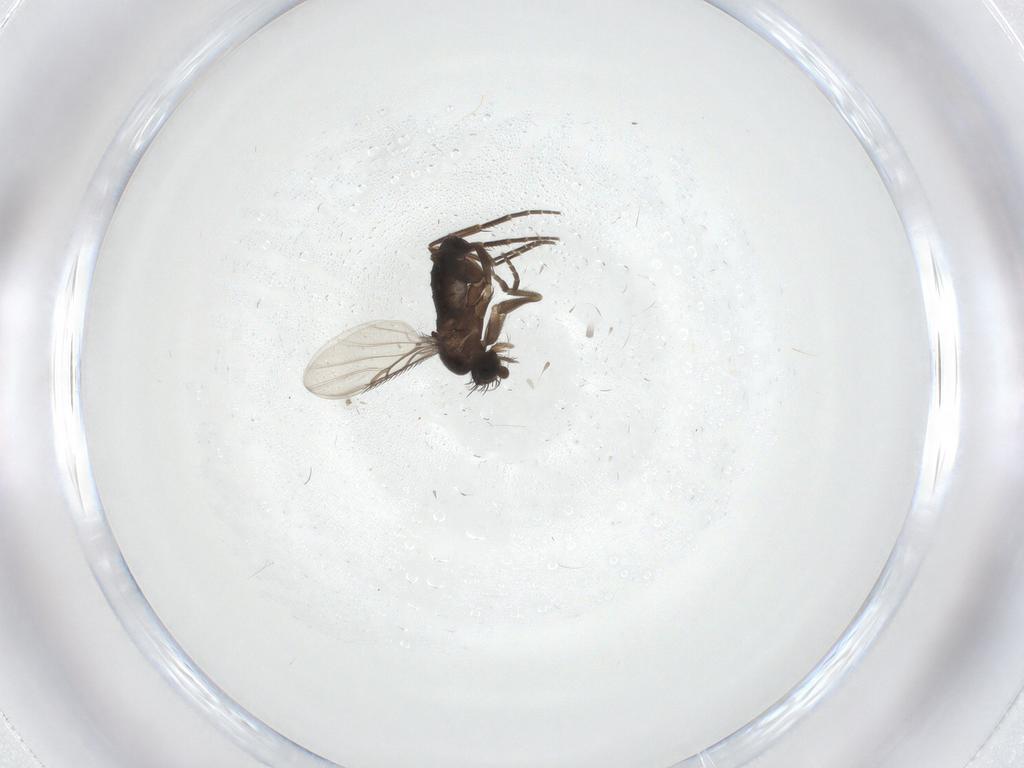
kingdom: Animalia
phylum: Arthropoda
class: Insecta
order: Diptera
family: Phoridae
